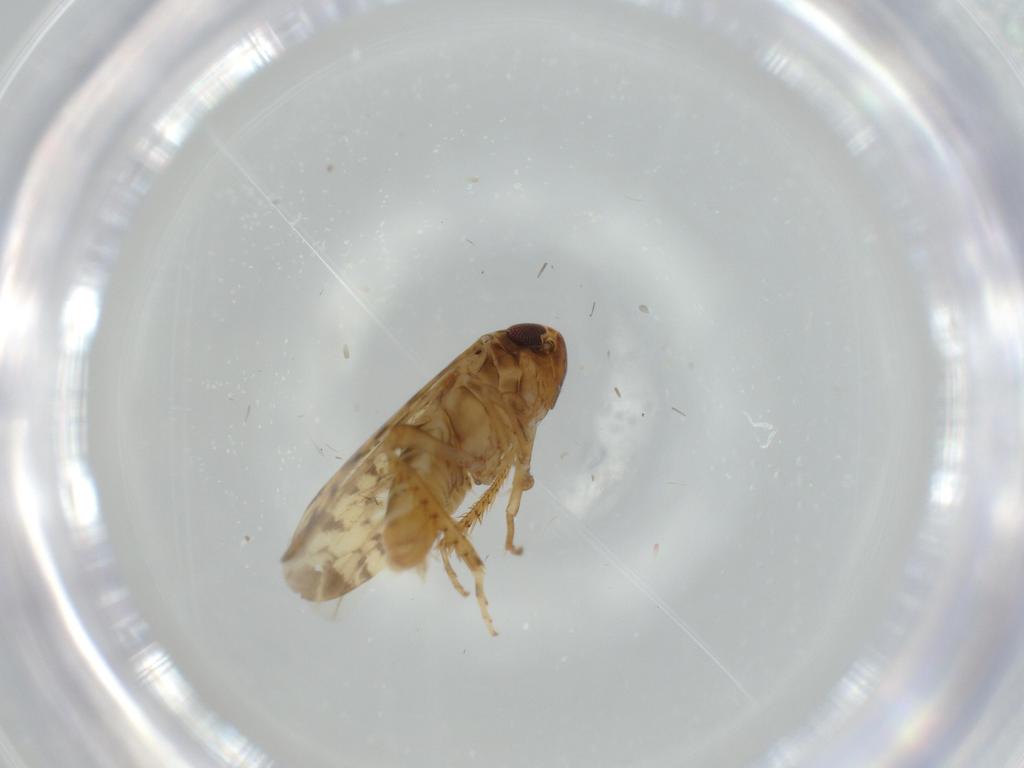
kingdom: Animalia
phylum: Arthropoda
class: Insecta
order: Hemiptera
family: Cicadellidae
